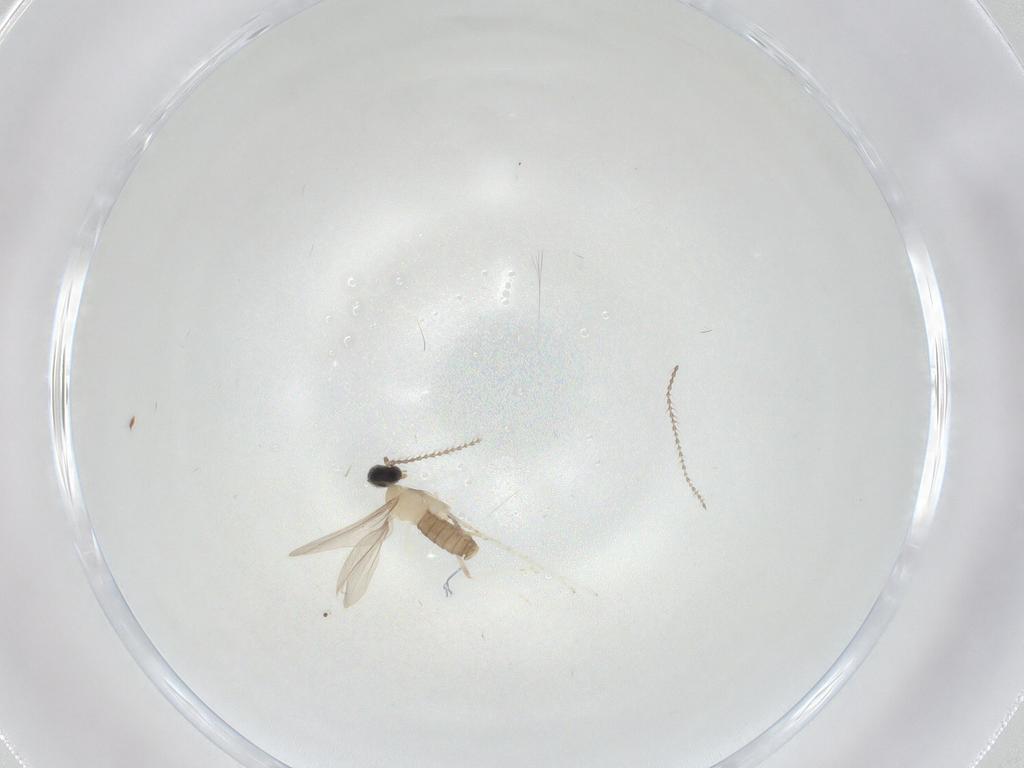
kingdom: Animalia
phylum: Arthropoda
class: Insecta
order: Diptera
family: Cecidomyiidae
